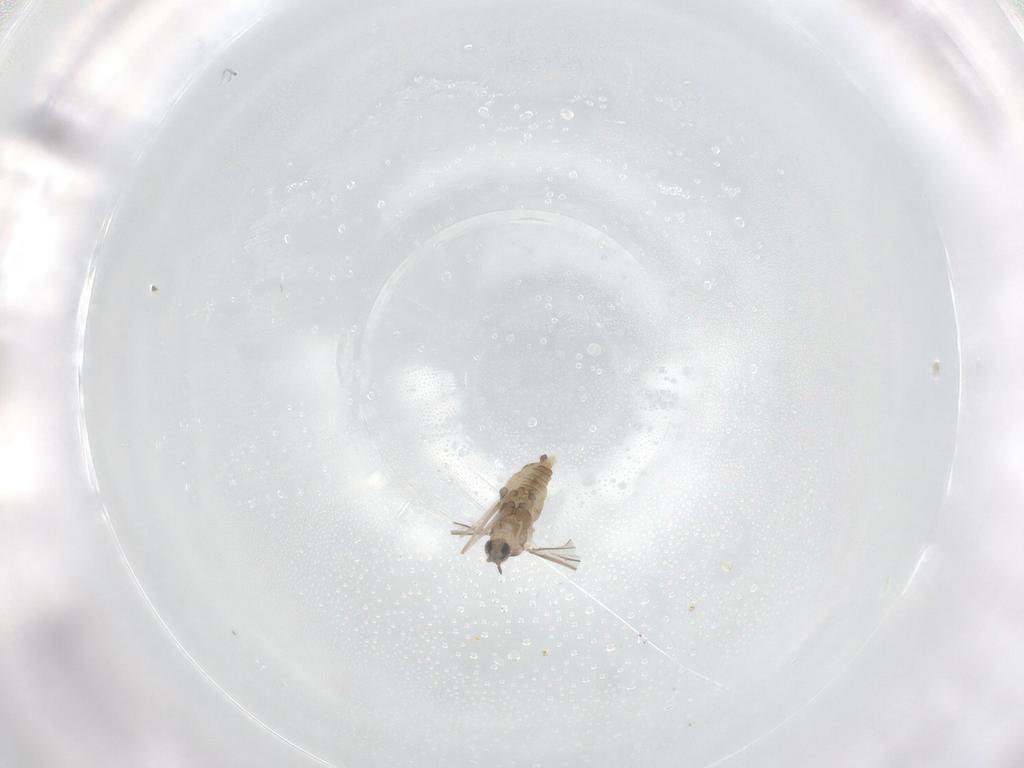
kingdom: Animalia
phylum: Arthropoda
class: Insecta
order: Diptera
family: Cecidomyiidae
